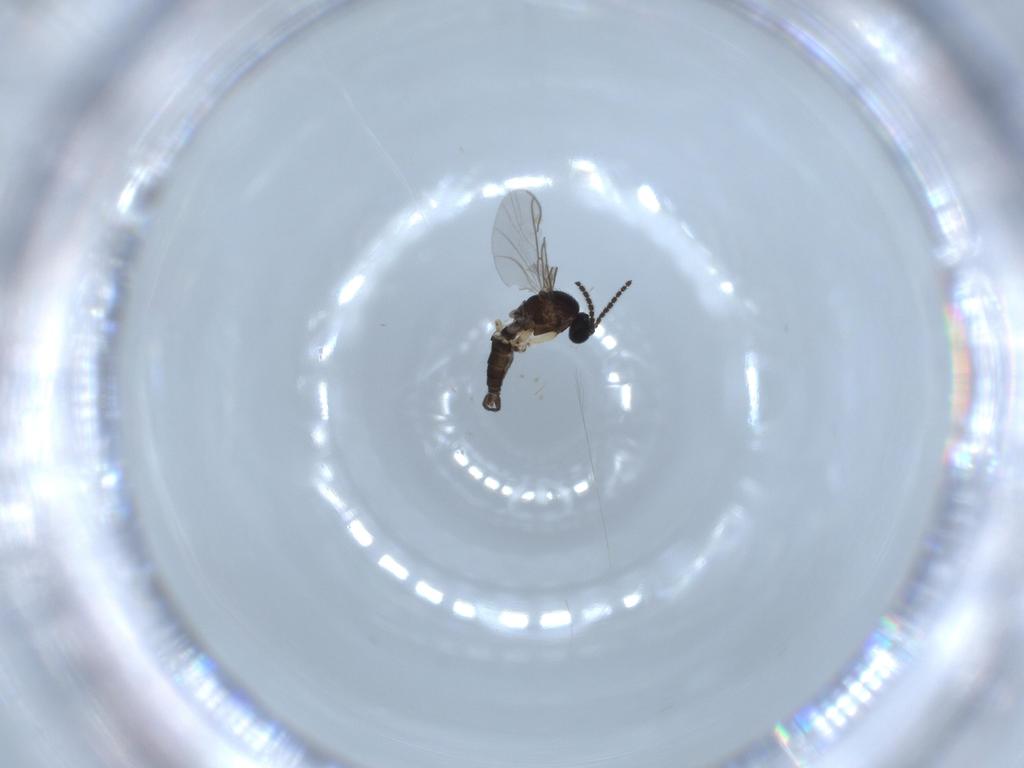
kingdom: Animalia
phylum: Arthropoda
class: Insecta
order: Diptera
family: Sciaridae
